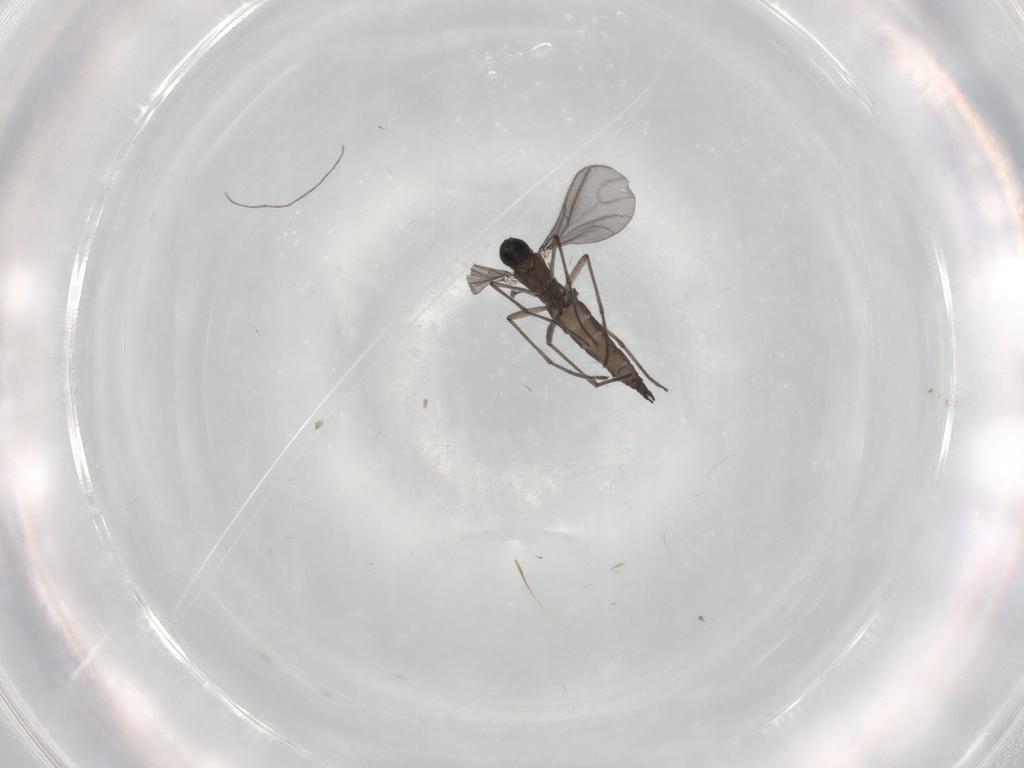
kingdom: Animalia
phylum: Arthropoda
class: Insecta
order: Diptera
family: Sciaridae
